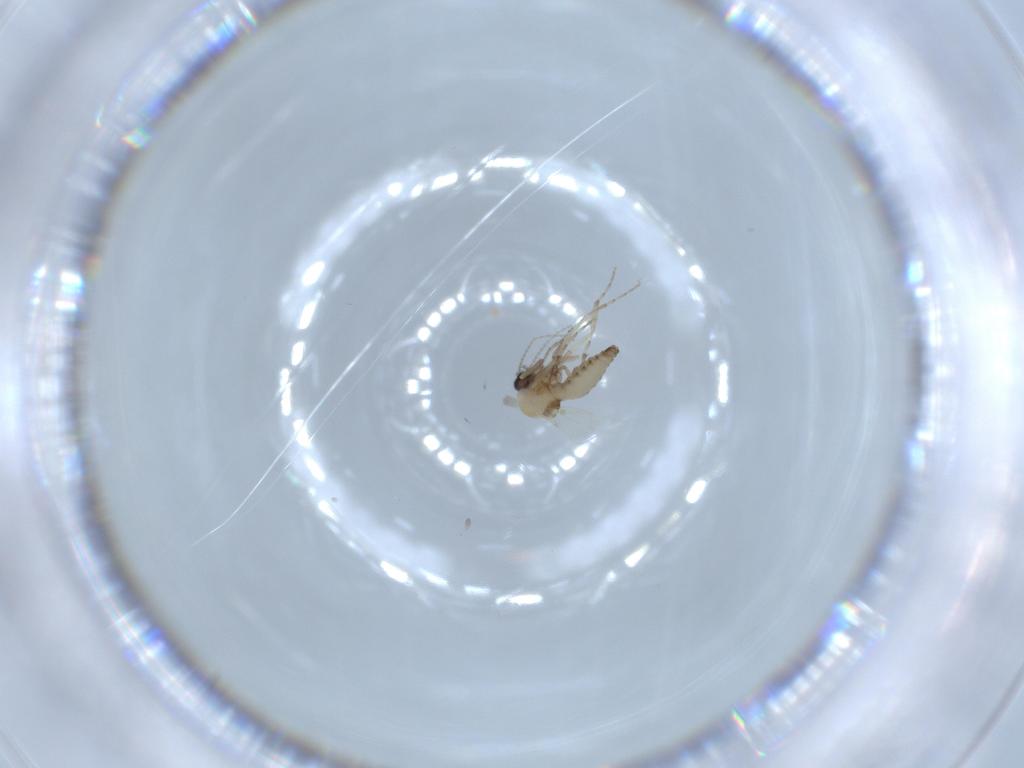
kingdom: Animalia
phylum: Arthropoda
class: Insecta
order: Diptera
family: Ceratopogonidae
